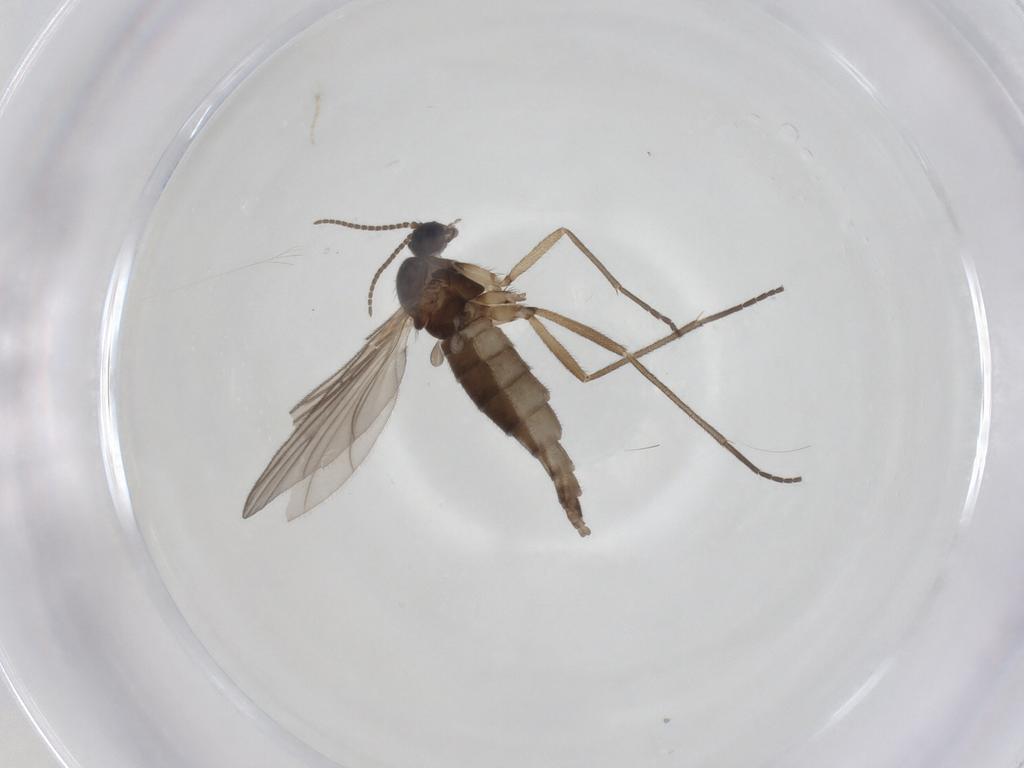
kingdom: Animalia
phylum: Arthropoda
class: Insecta
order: Diptera
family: Sciaridae
